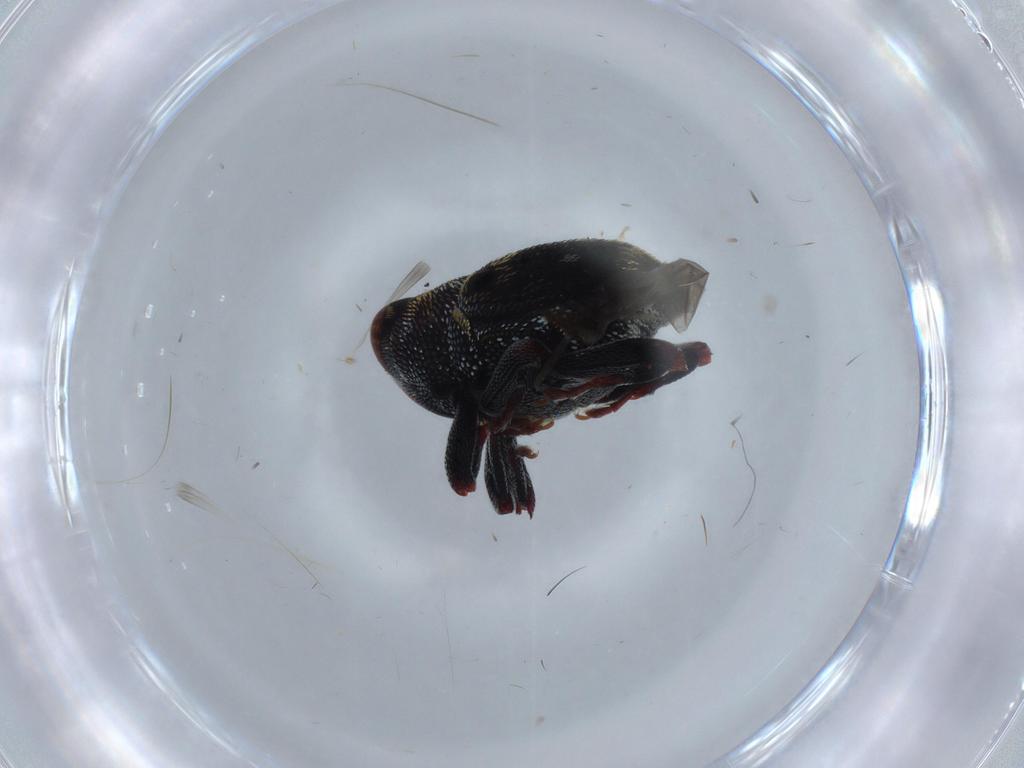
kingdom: Animalia
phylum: Arthropoda
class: Insecta
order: Coleoptera
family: Staphylinidae
